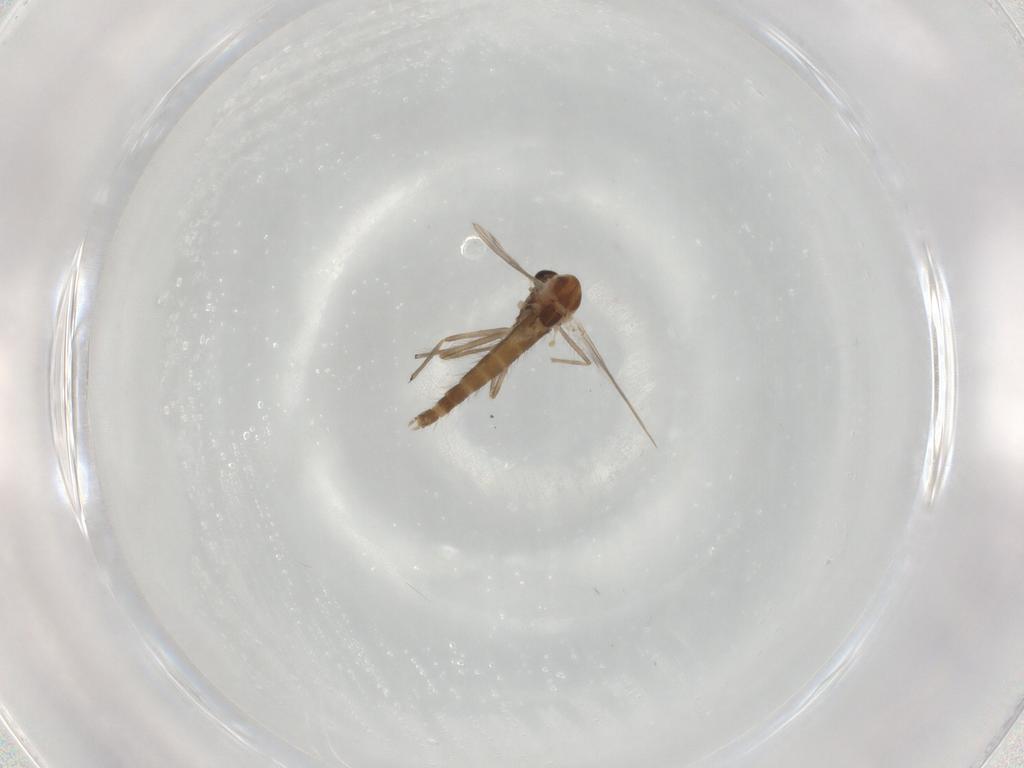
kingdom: Animalia
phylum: Arthropoda
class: Insecta
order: Diptera
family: Chironomidae
